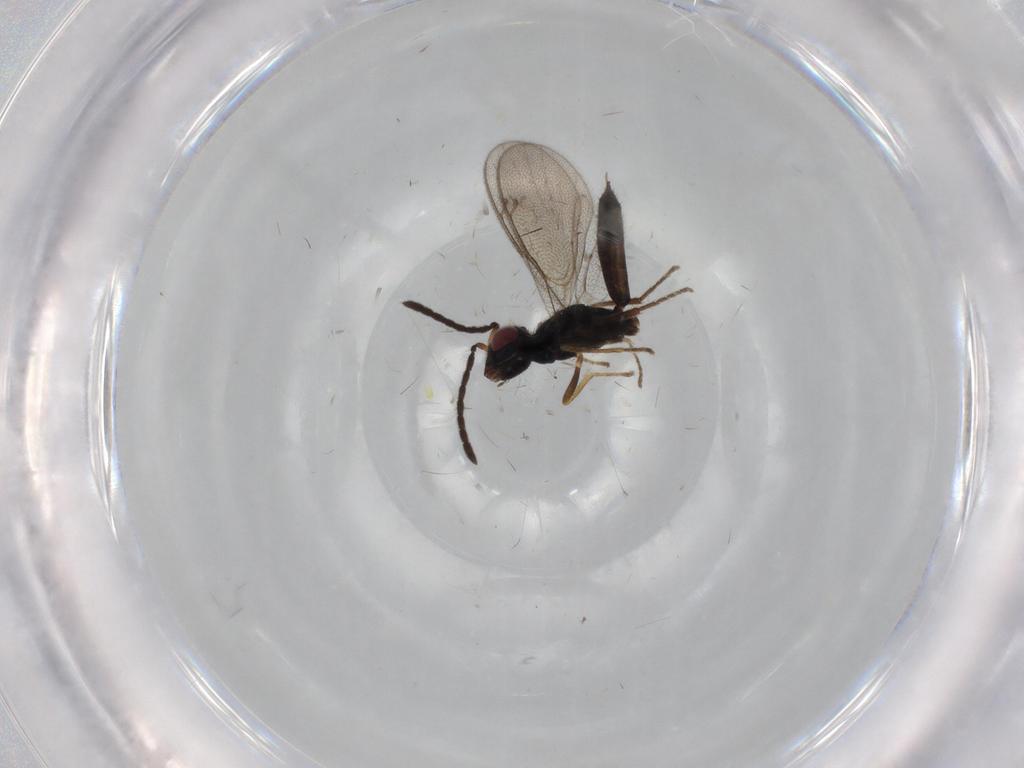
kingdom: Animalia
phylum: Arthropoda
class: Insecta
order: Hymenoptera
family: Pteromalidae
